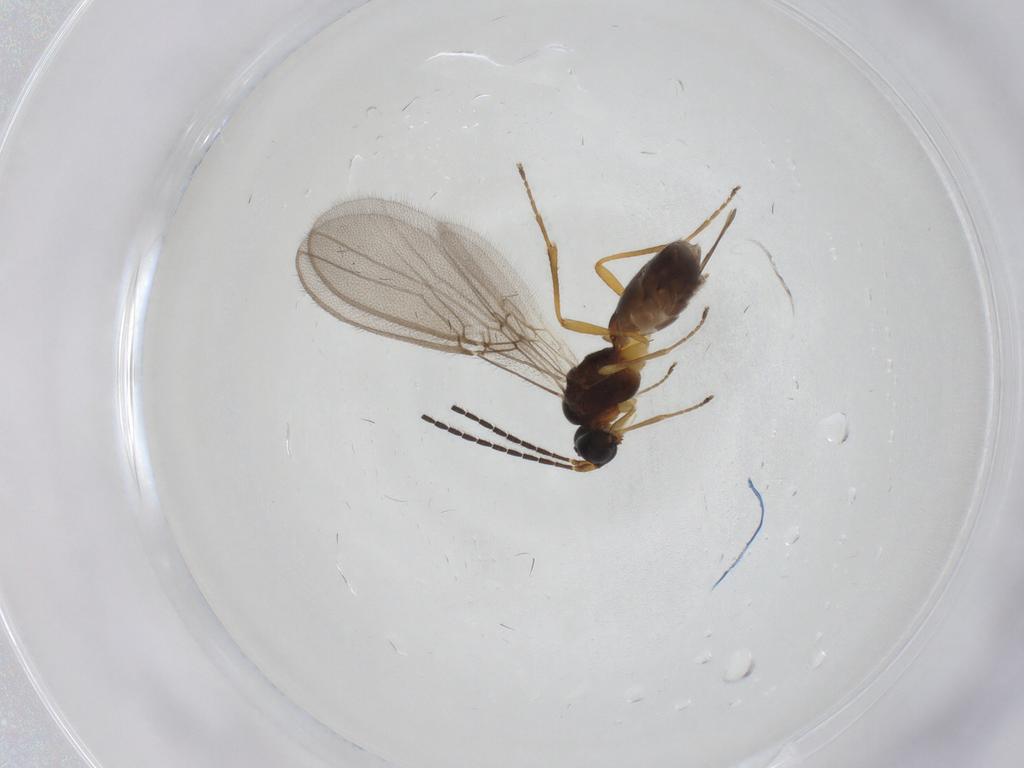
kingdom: Animalia
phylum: Arthropoda
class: Insecta
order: Hymenoptera
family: Braconidae
